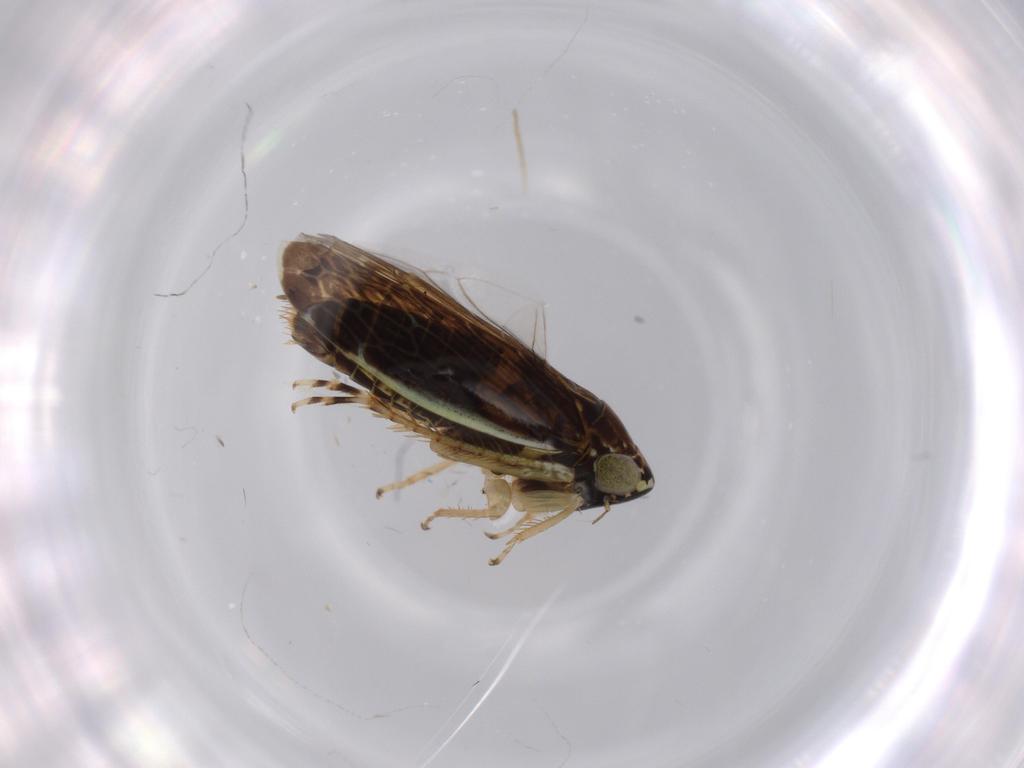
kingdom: Animalia
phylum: Arthropoda
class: Insecta
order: Hemiptera
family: Cicadellidae
